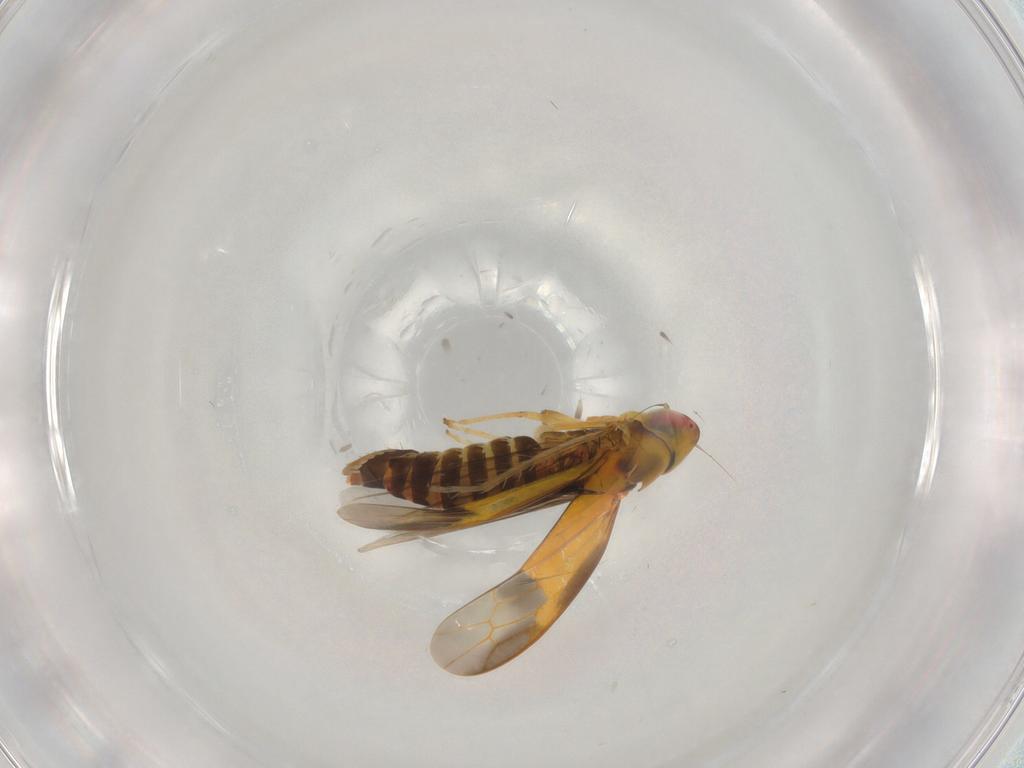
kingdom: Animalia
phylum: Arthropoda
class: Insecta
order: Hemiptera
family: Cicadellidae
